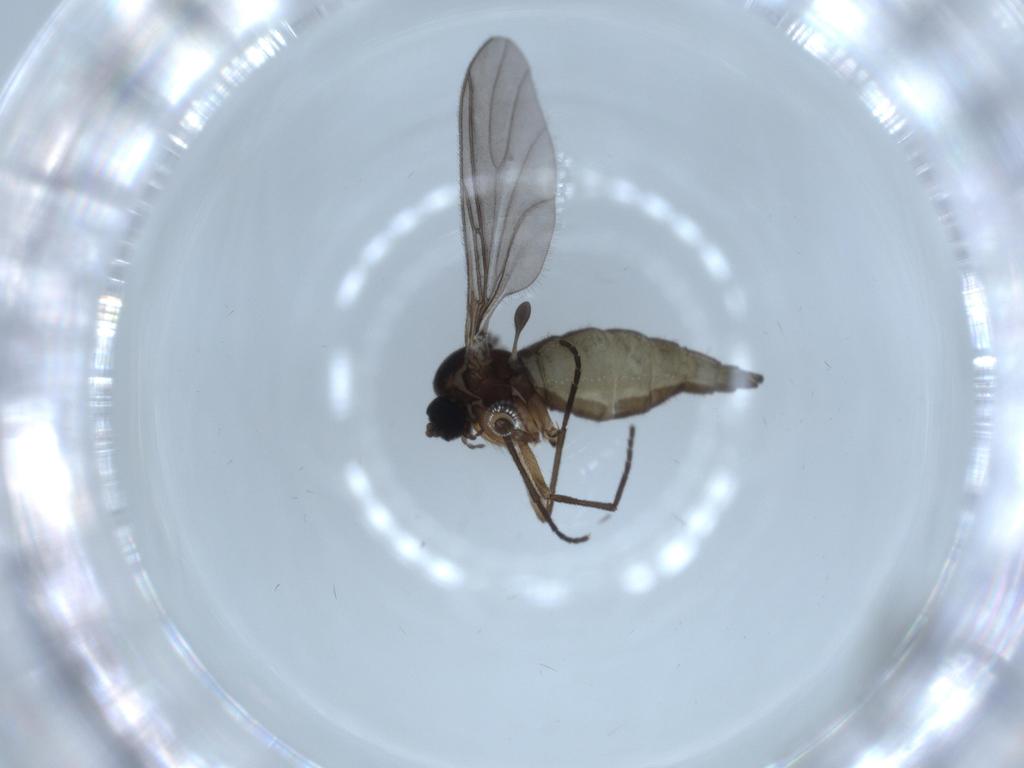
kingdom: Animalia
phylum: Arthropoda
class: Insecta
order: Diptera
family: Sciaridae
